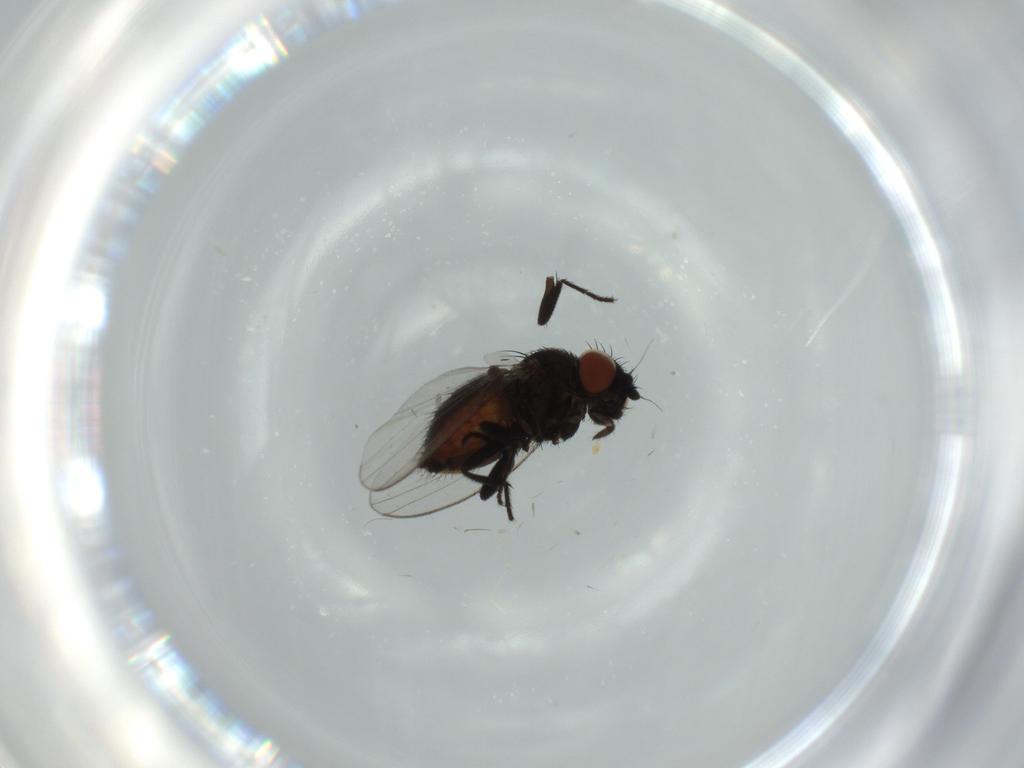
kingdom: Animalia
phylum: Arthropoda
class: Insecta
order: Diptera
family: Milichiidae
